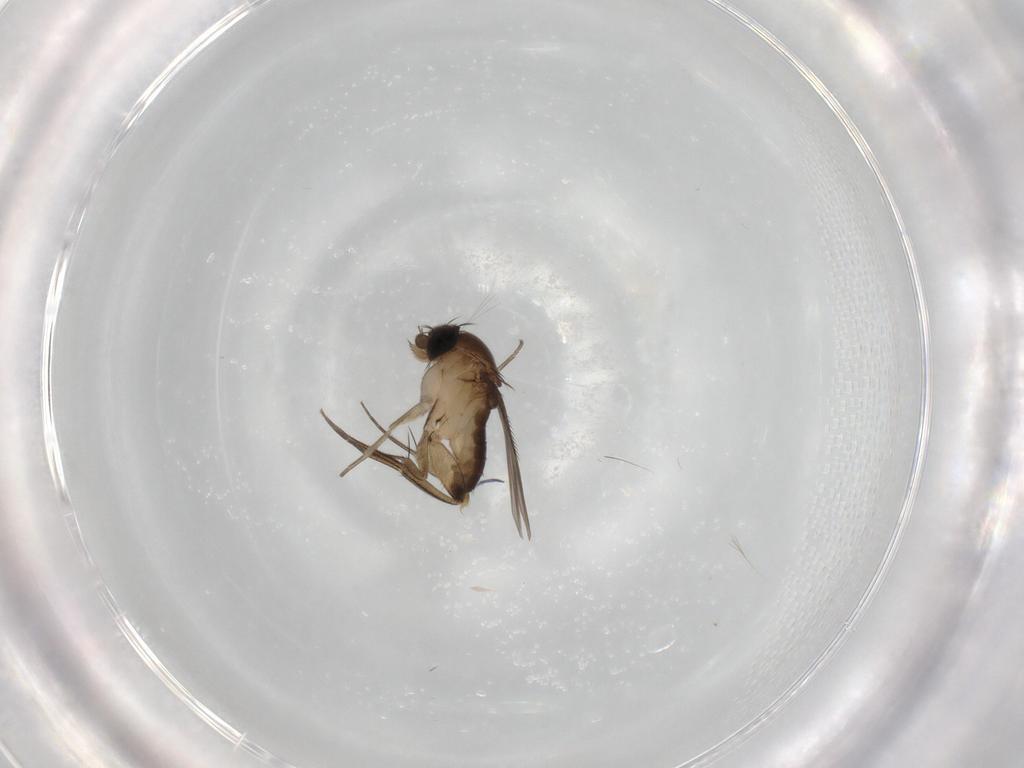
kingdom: Animalia
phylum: Arthropoda
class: Insecta
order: Diptera
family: Phoridae
